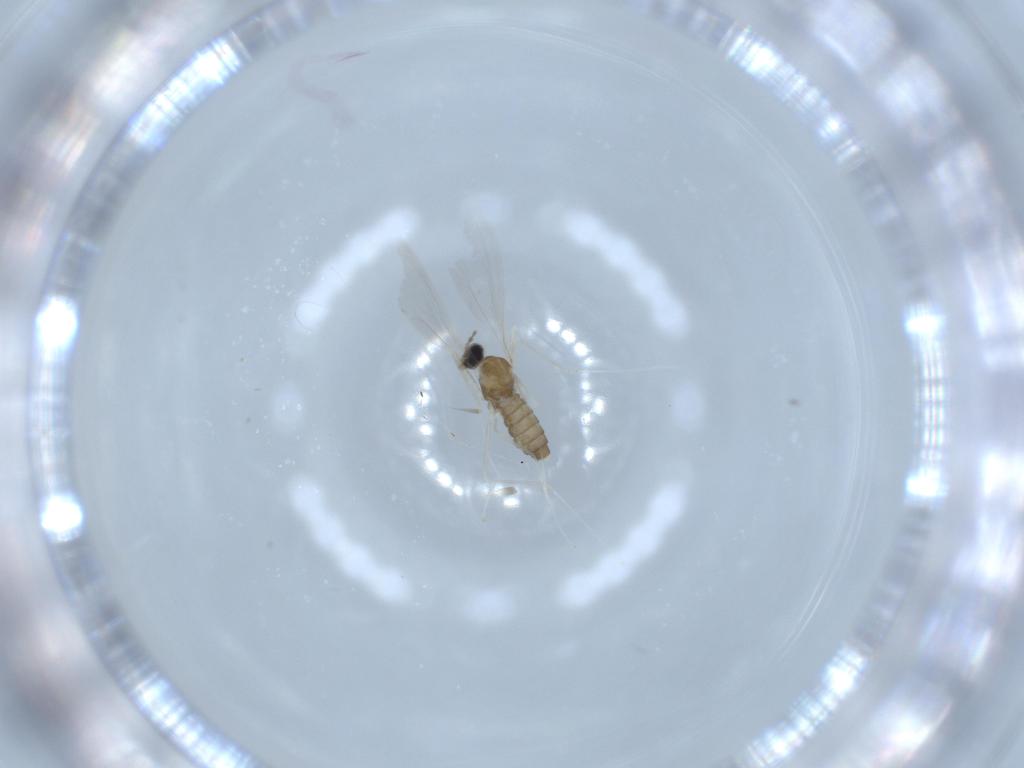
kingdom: Animalia
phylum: Arthropoda
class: Insecta
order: Diptera
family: Cecidomyiidae
